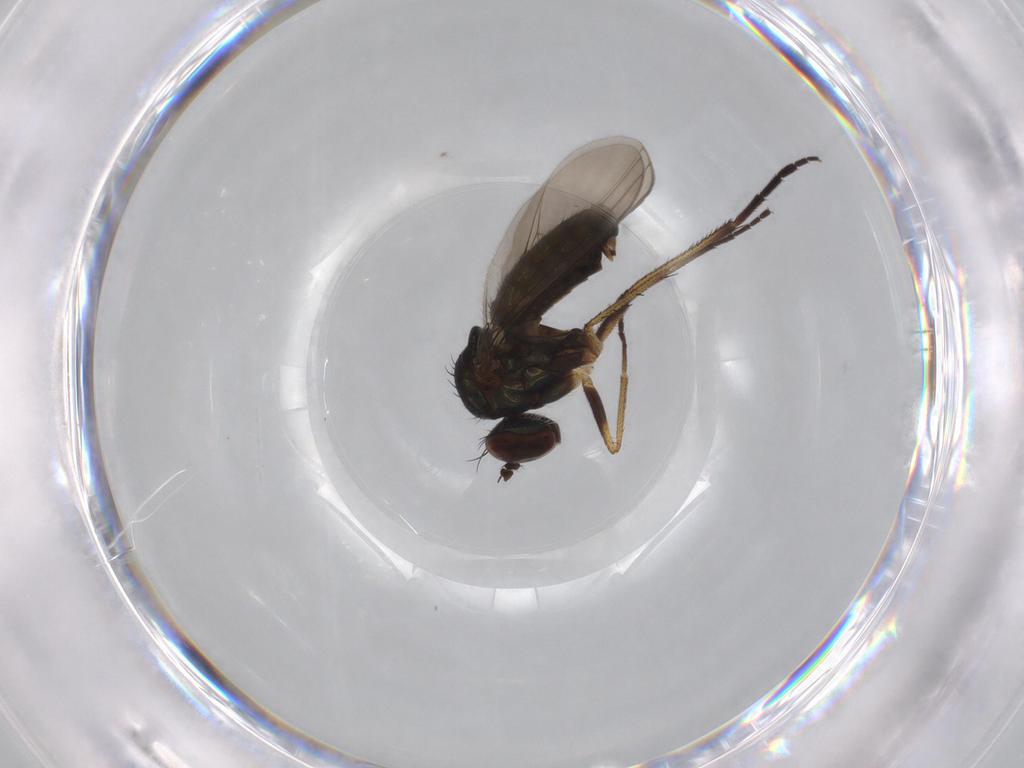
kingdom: Animalia
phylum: Arthropoda
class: Insecta
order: Diptera
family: Dolichopodidae
